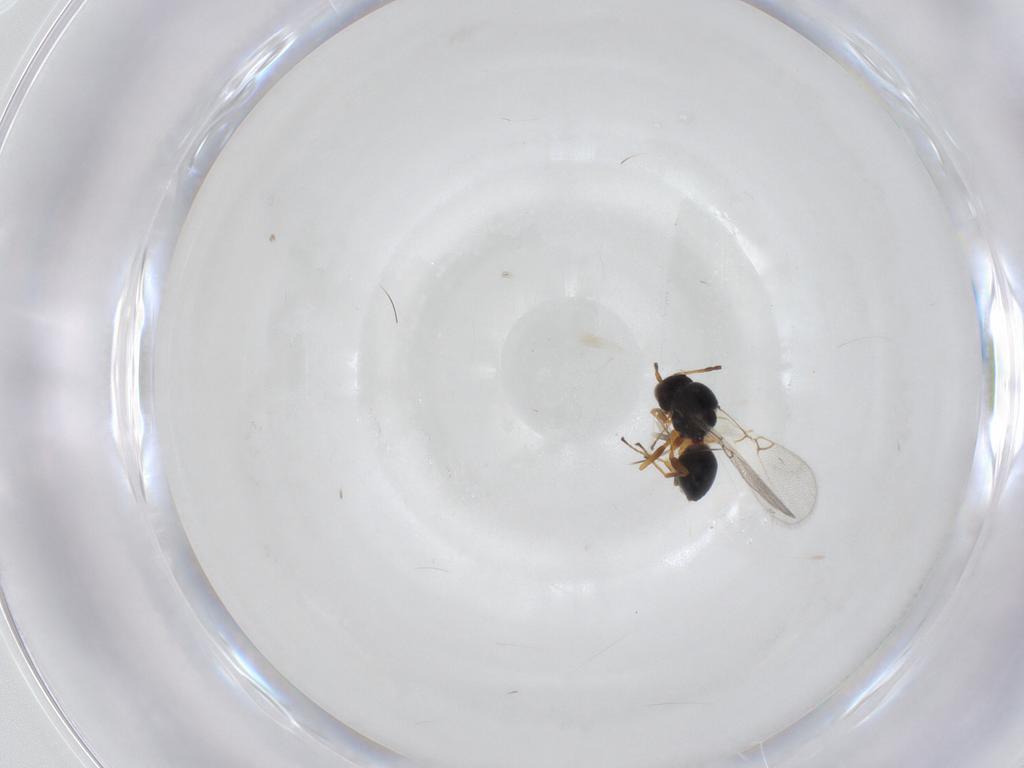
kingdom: Animalia
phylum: Arthropoda
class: Insecta
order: Hymenoptera
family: Figitidae
